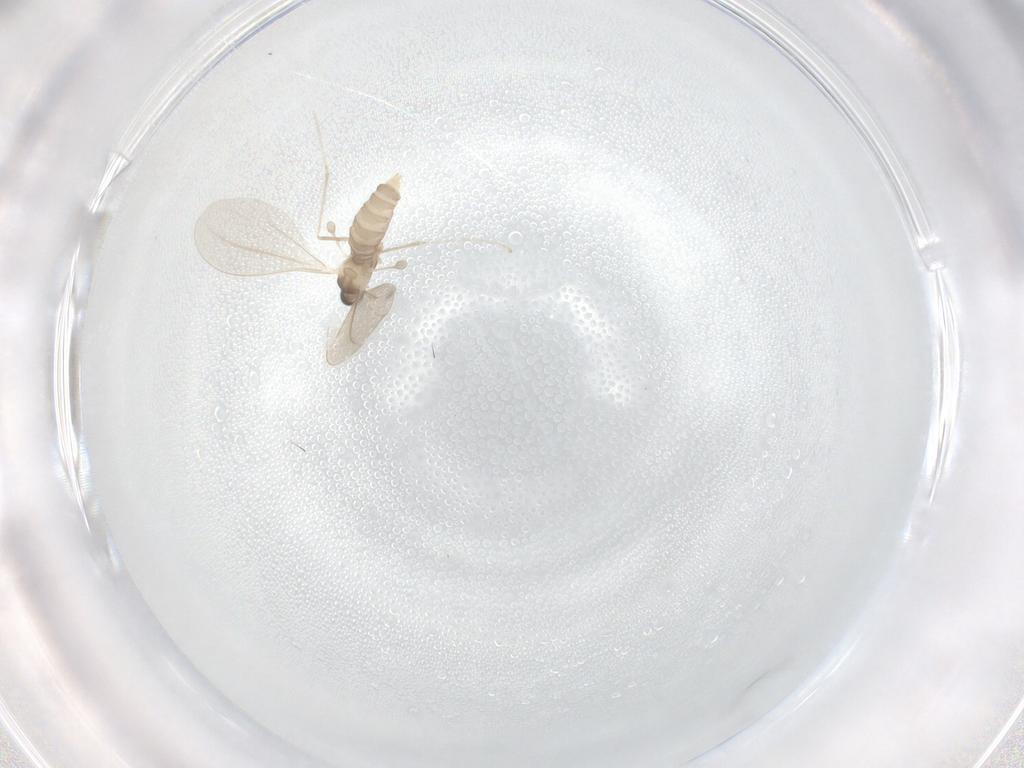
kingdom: Animalia
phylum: Arthropoda
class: Insecta
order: Diptera
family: Cecidomyiidae
